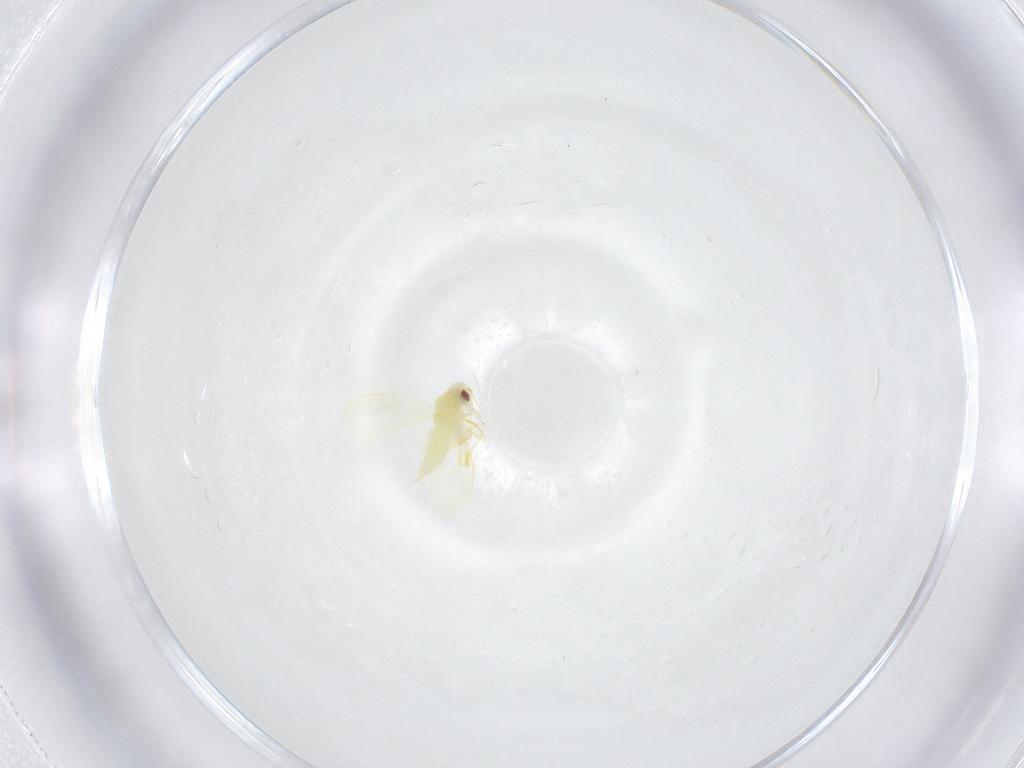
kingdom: Animalia
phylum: Arthropoda
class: Insecta
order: Hemiptera
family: Aleyrodidae
